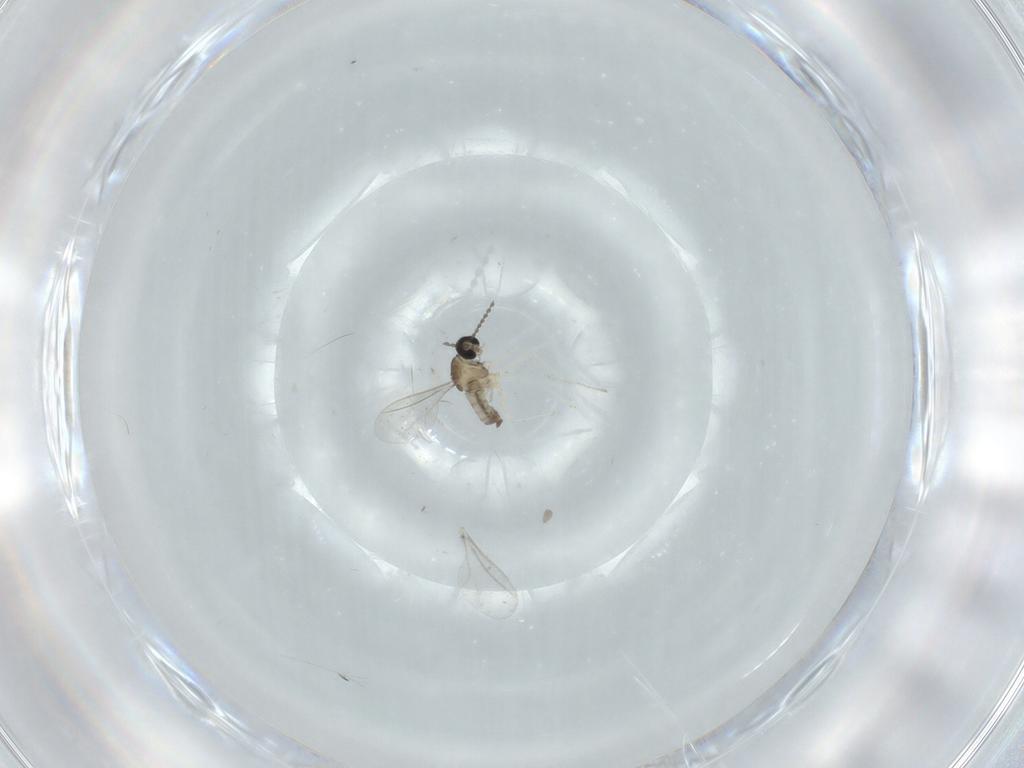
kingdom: Animalia
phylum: Arthropoda
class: Insecta
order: Diptera
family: Cecidomyiidae
